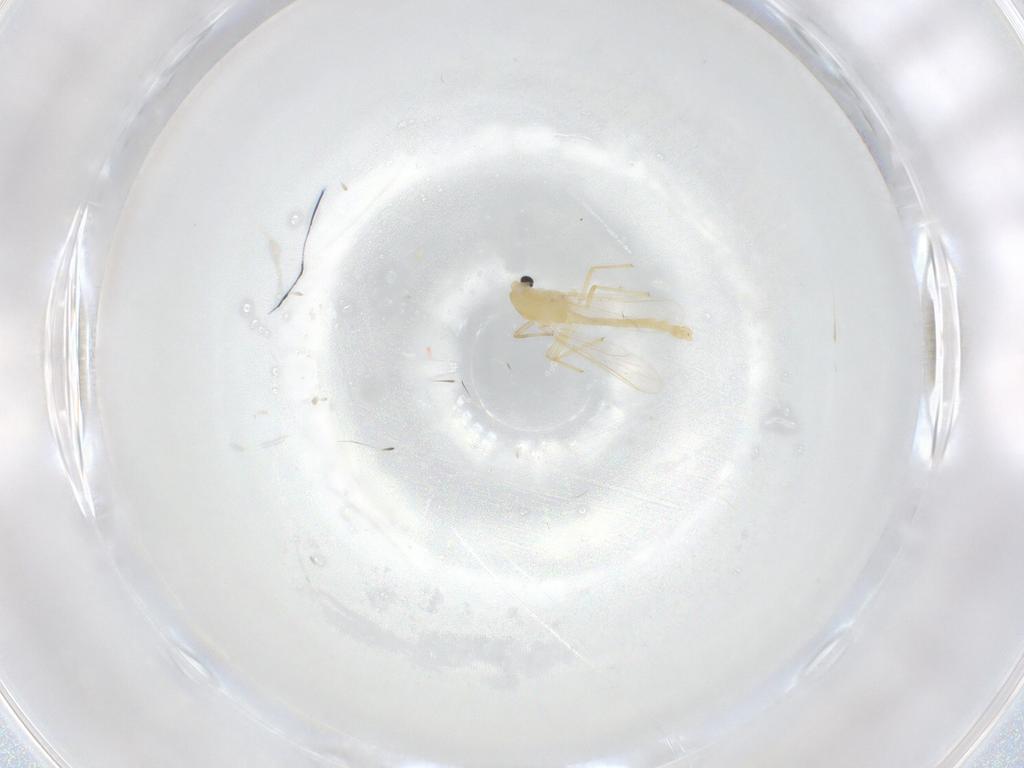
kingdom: Animalia
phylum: Arthropoda
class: Insecta
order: Diptera
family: Chironomidae
